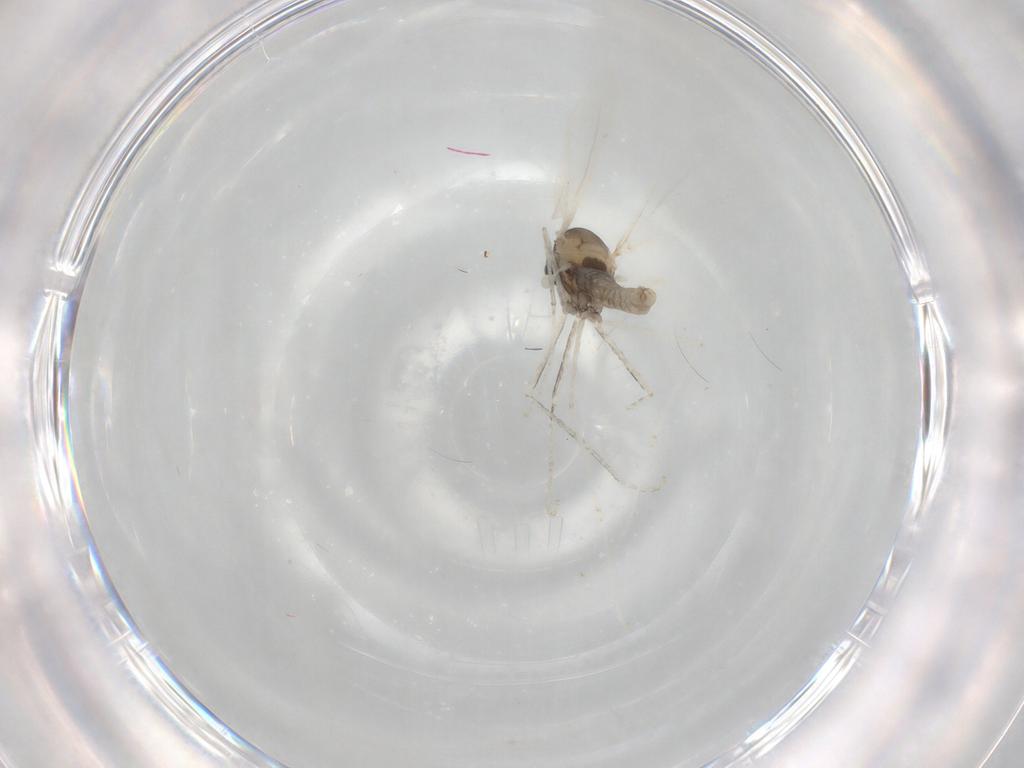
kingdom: Animalia
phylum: Arthropoda
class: Insecta
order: Diptera
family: Cecidomyiidae
